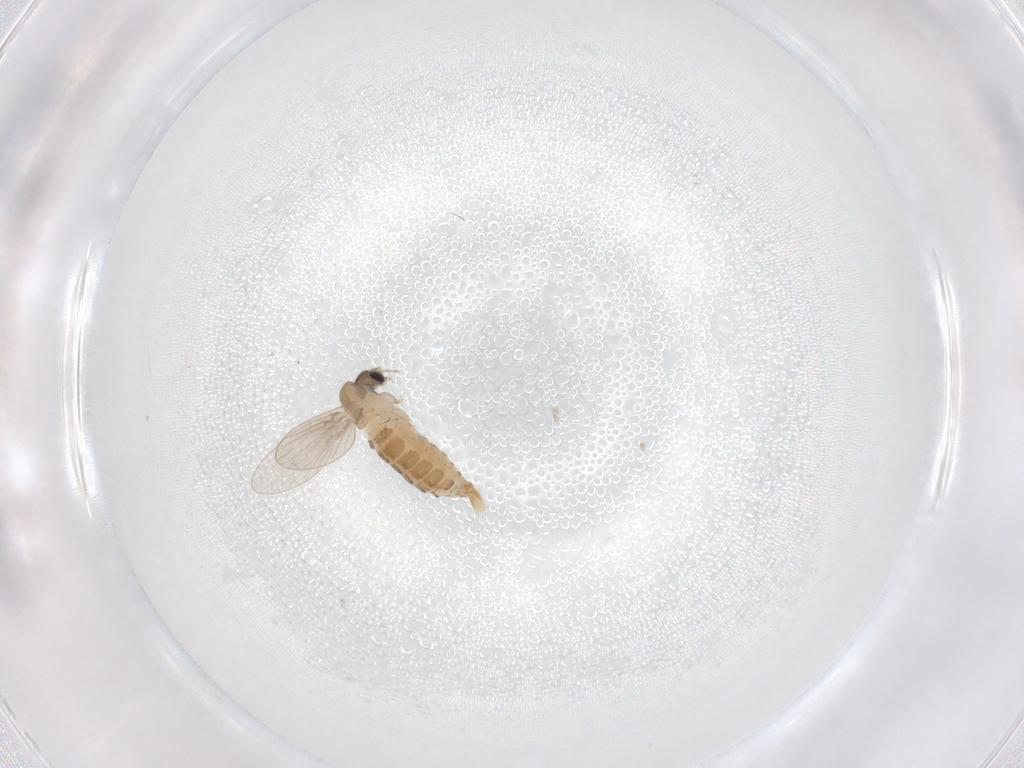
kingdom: Animalia
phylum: Arthropoda
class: Insecta
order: Diptera
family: Psychodidae
